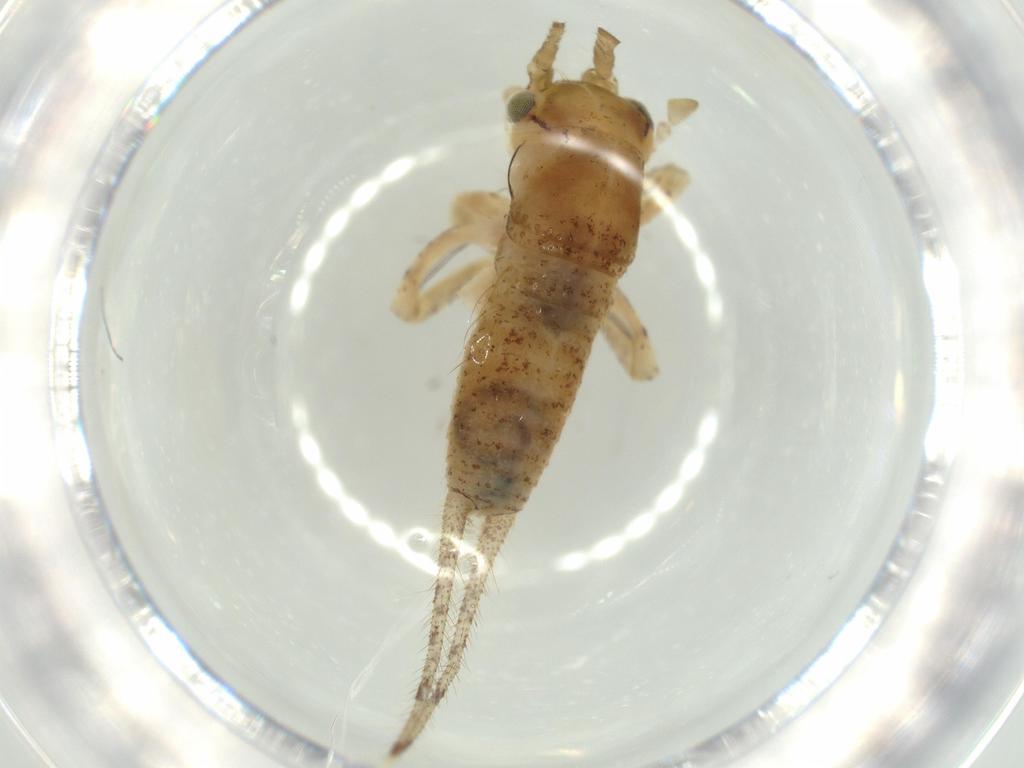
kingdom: Animalia
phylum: Arthropoda
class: Insecta
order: Orthoptera
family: Gryllidae
